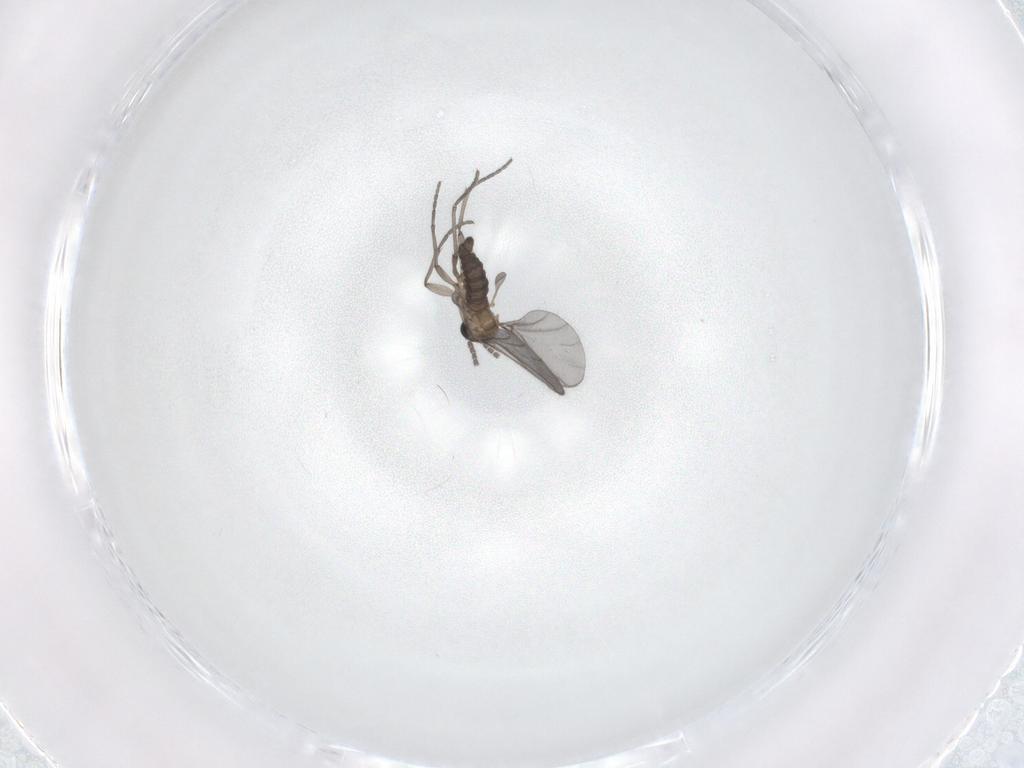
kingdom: Animalia
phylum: Arthropoda
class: Insecta
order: Diptera
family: Sciaridae
